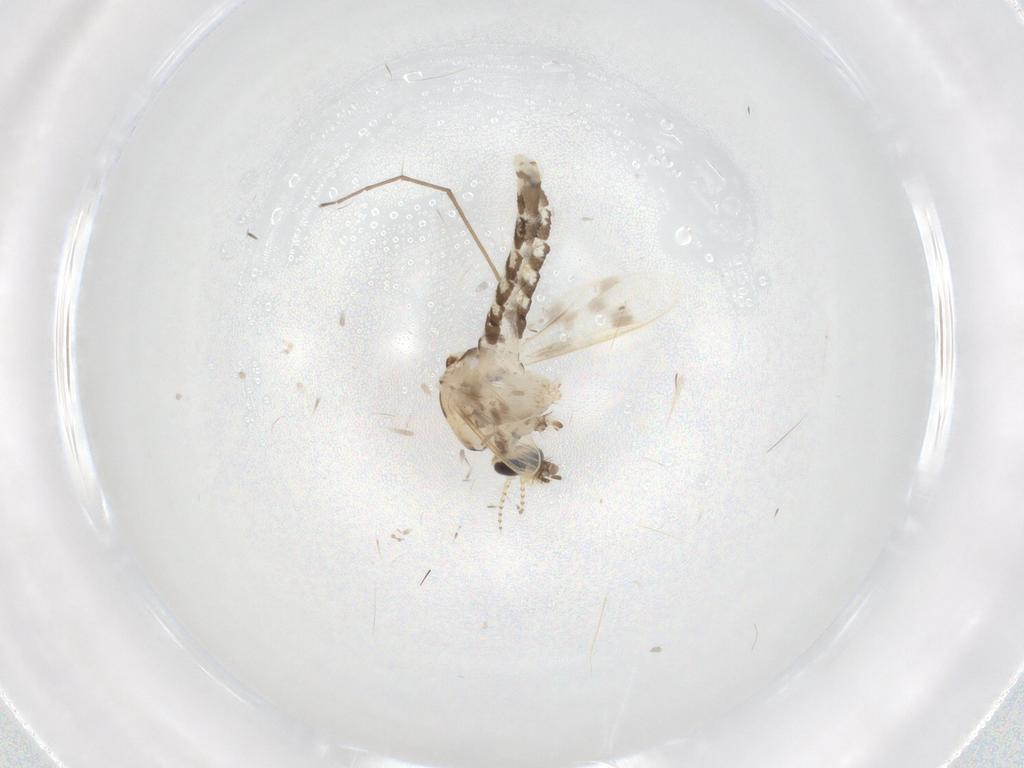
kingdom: Animalia
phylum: Arthropoda
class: Insecta
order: Diptera
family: Corethrellidae
